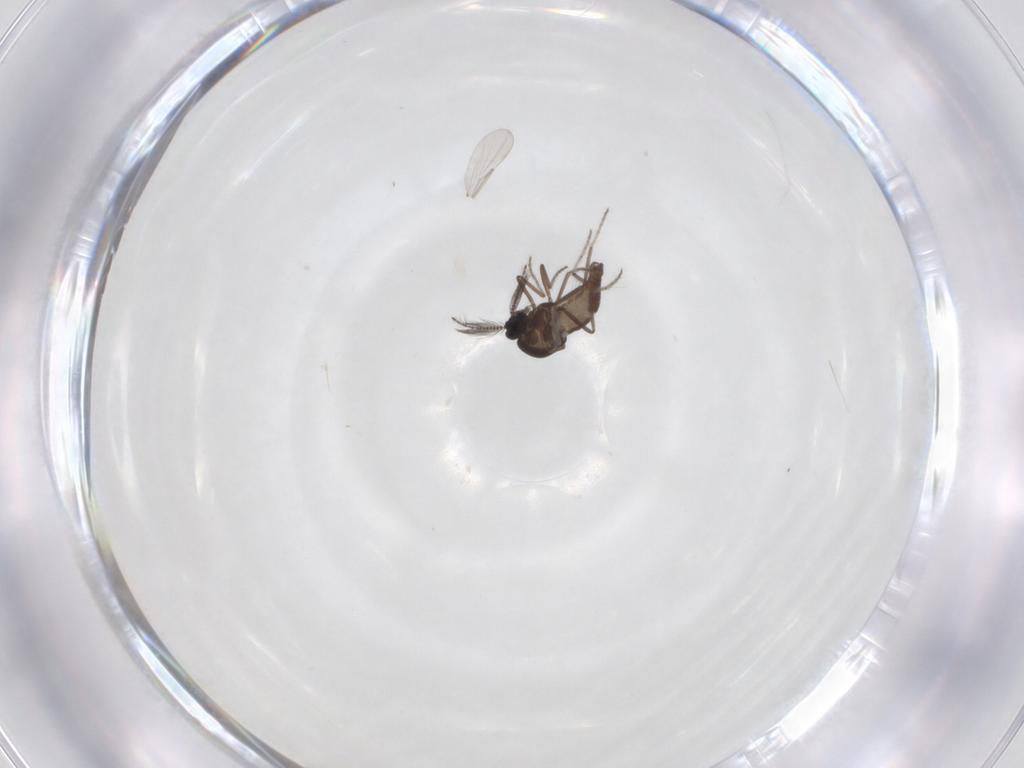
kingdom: Animalia
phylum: Arthropoda
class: Insecta
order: Diptera
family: Ceratopogonidae
